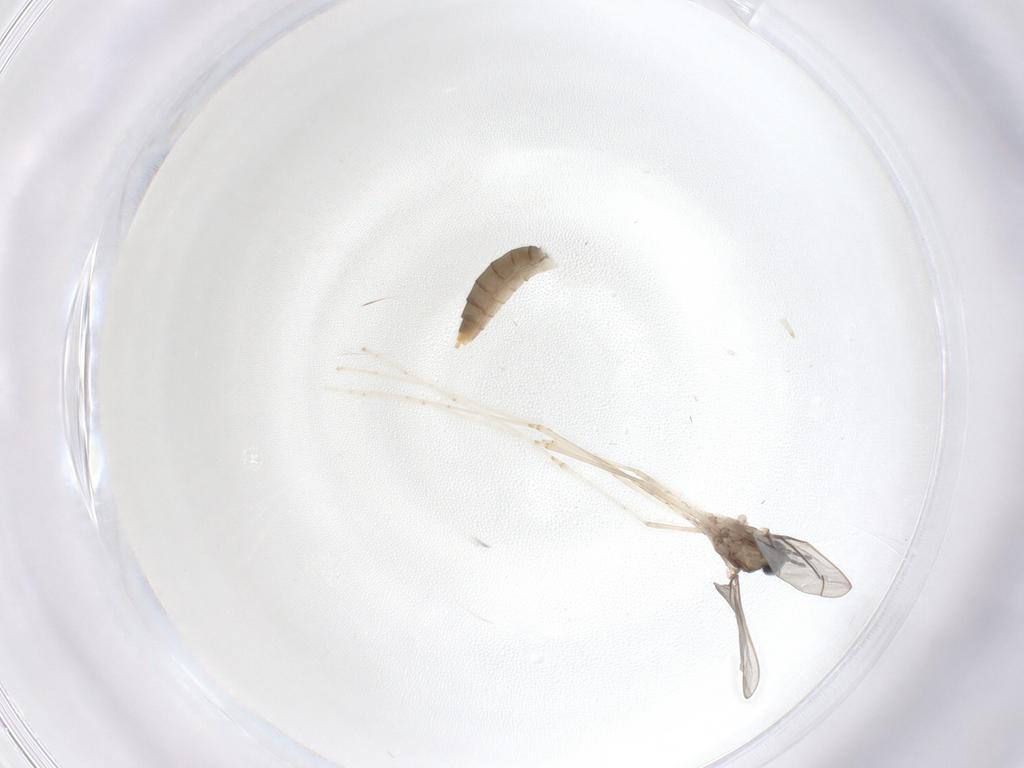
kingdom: Animalia
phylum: Arthropoda
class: Insecta
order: Diptera
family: Cecidomyiidae
